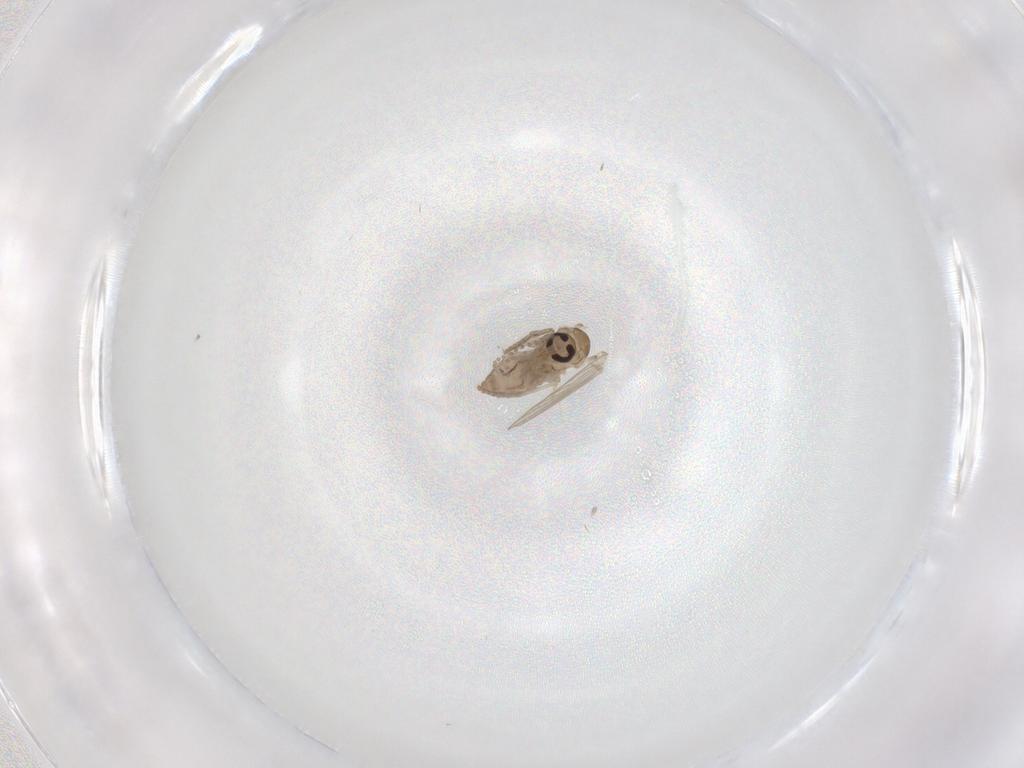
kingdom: Animalia
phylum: Arthropoda
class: Insecta
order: Diptera
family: Psychodidae
